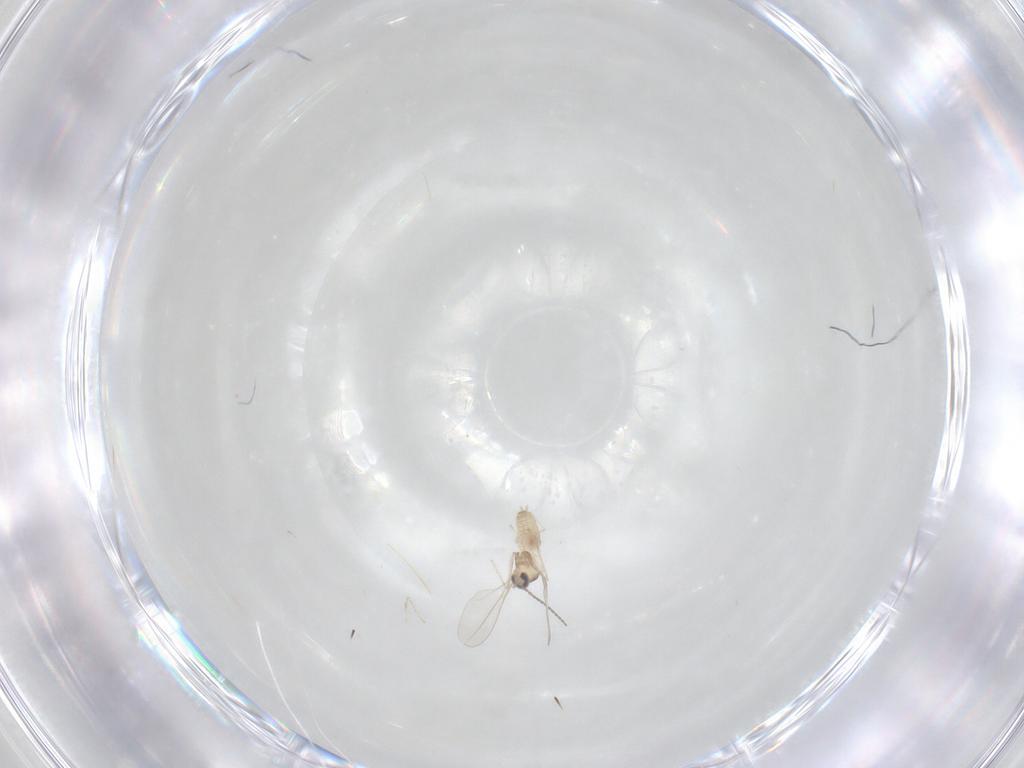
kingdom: Animalia
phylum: Arthropoda
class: Insecta
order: Diptera
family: Cecidomyiidae
